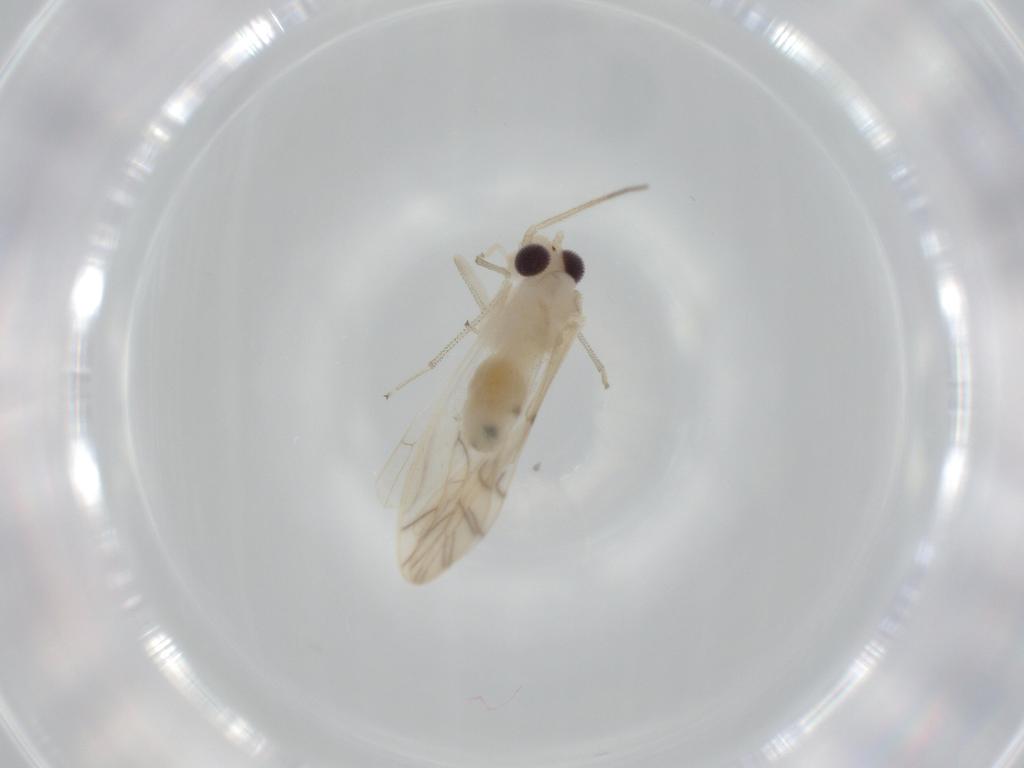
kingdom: Animalia
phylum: Arthropoda
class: Insecta
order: Psocodea
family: Caeciliusidae
